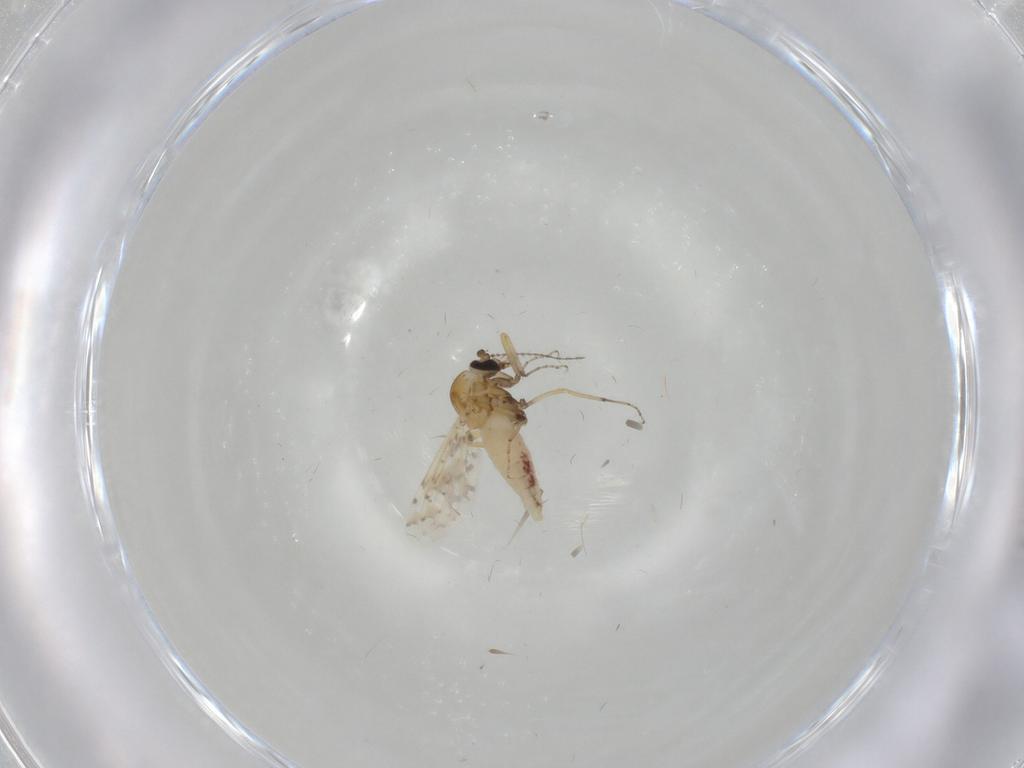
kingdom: Animalia
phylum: Arthropoda
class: Insecta
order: Diptera
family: Ceratopogonidae
